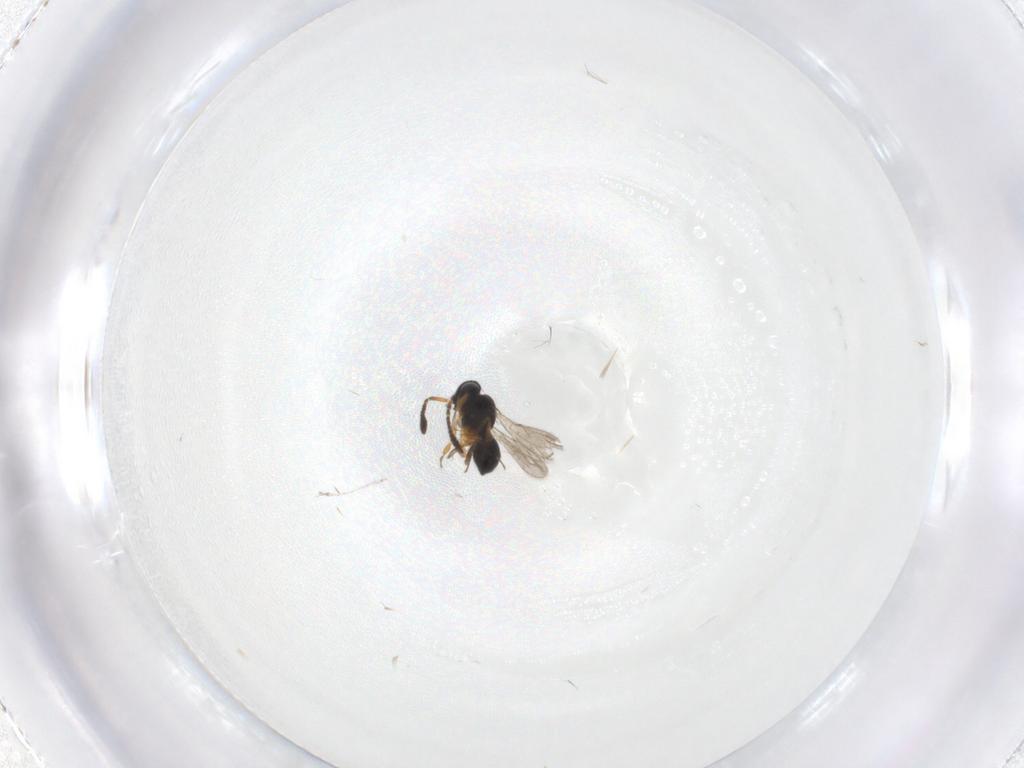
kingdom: Animalia
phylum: Arthropoda
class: Insecta
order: Hymenoptera
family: Scelionidae
